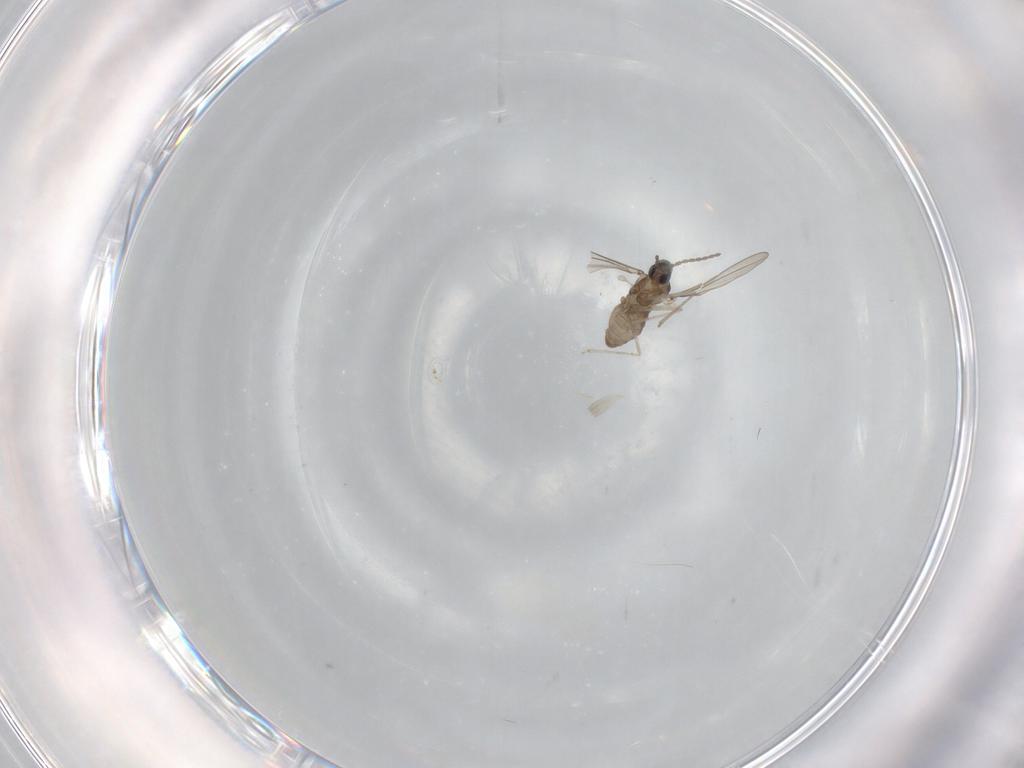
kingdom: Animalia
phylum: Arthropoda
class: Insecta
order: Diptera
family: Cecidomyiidae
